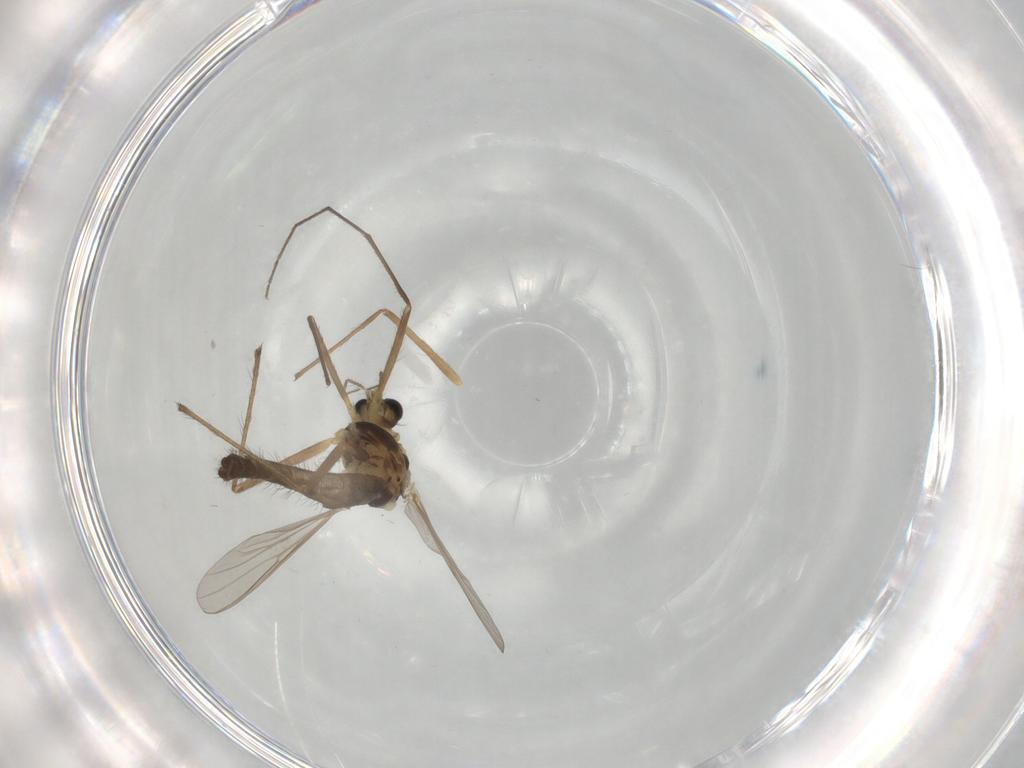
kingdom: Animalia
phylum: Arthropoda
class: Insecta
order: Diptera
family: Chironomidae
